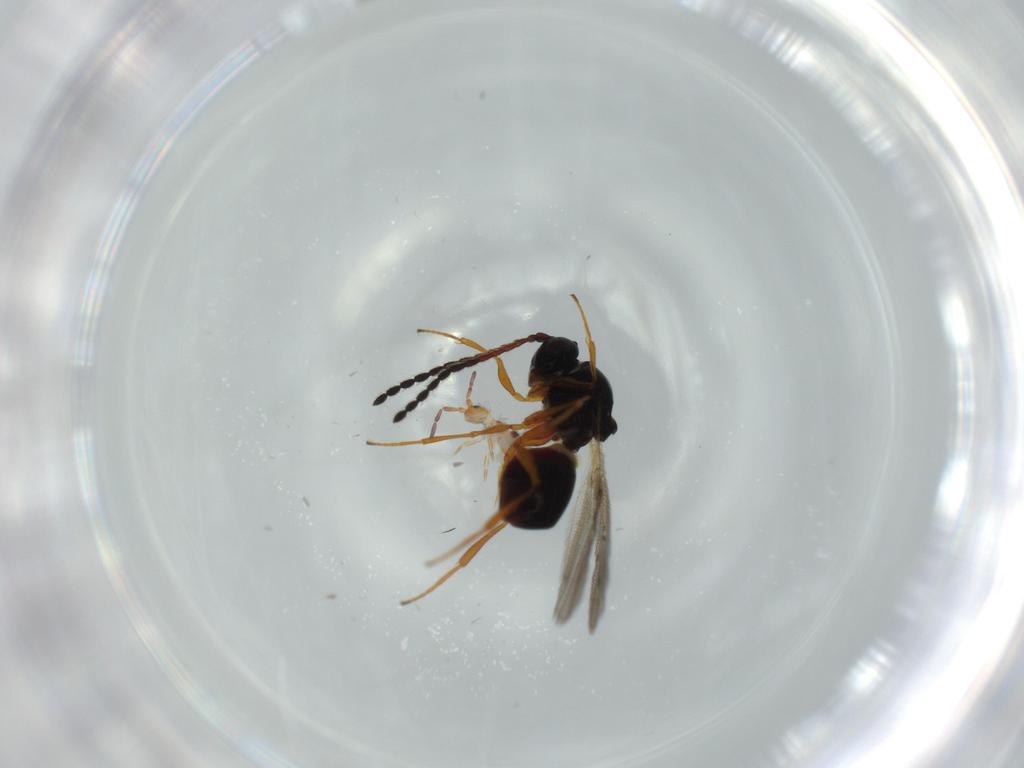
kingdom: Animalia
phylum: Arthropoda
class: Insecta
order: Hymenoptera
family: Figitidae
